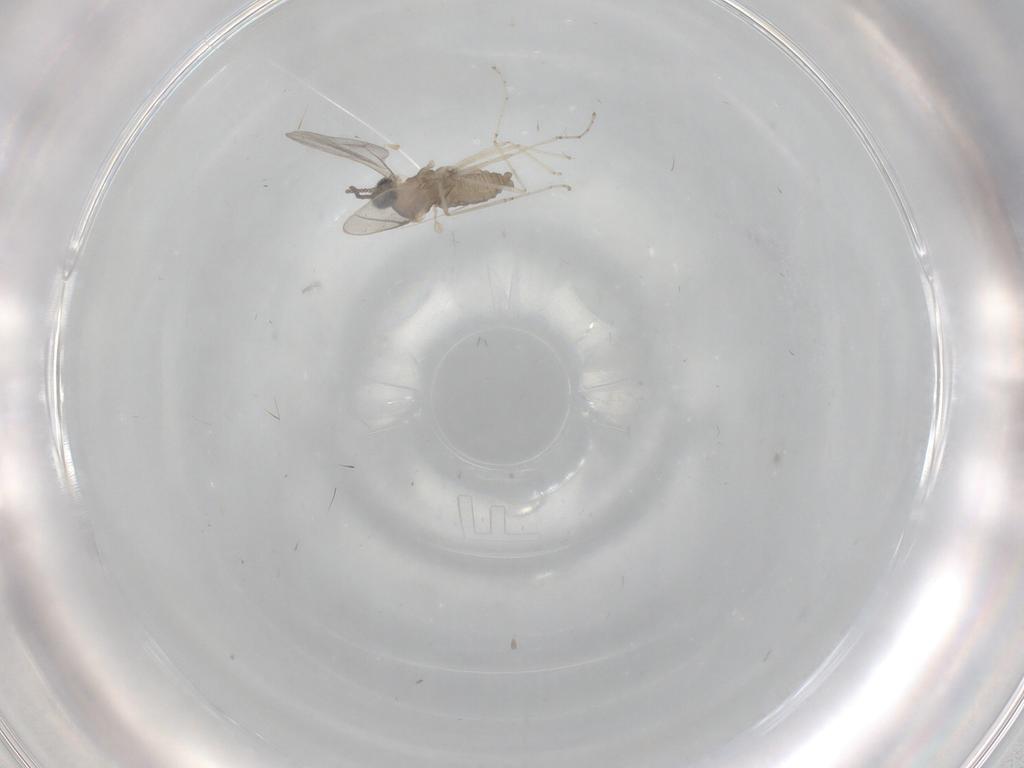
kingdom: Animalia
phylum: Arthropoda
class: Insecta
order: Diptera
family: Cecidomyiidae
